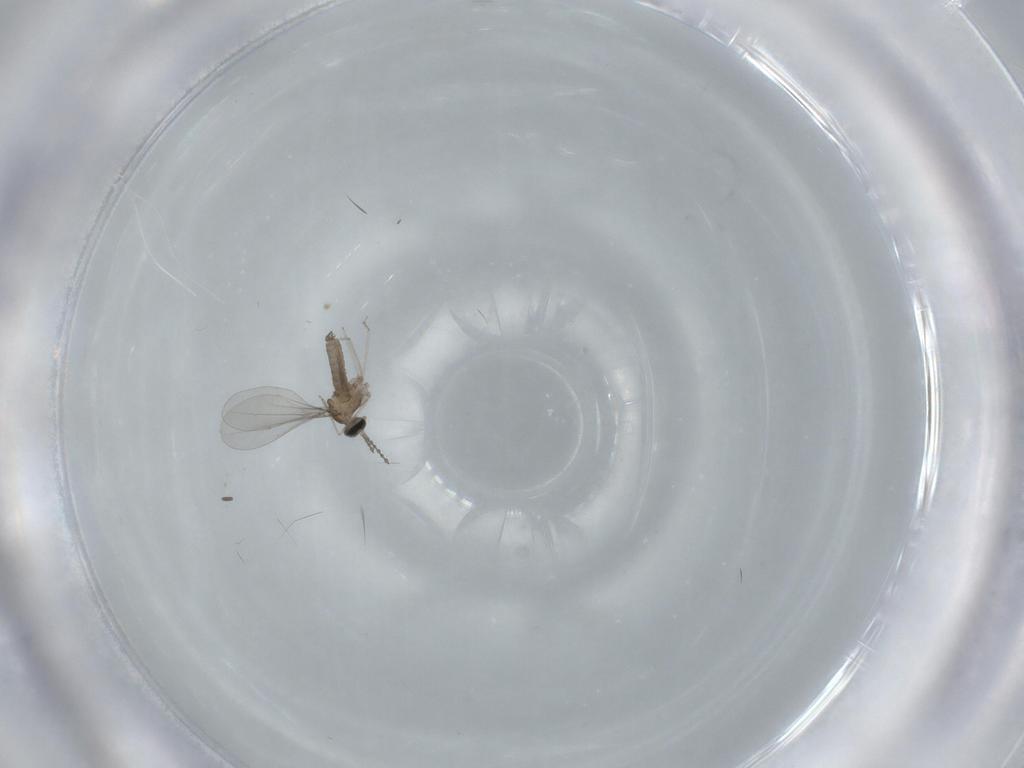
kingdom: Animalia
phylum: Arthropoda
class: Insecta
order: Diptera
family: Cecidomyiidae
